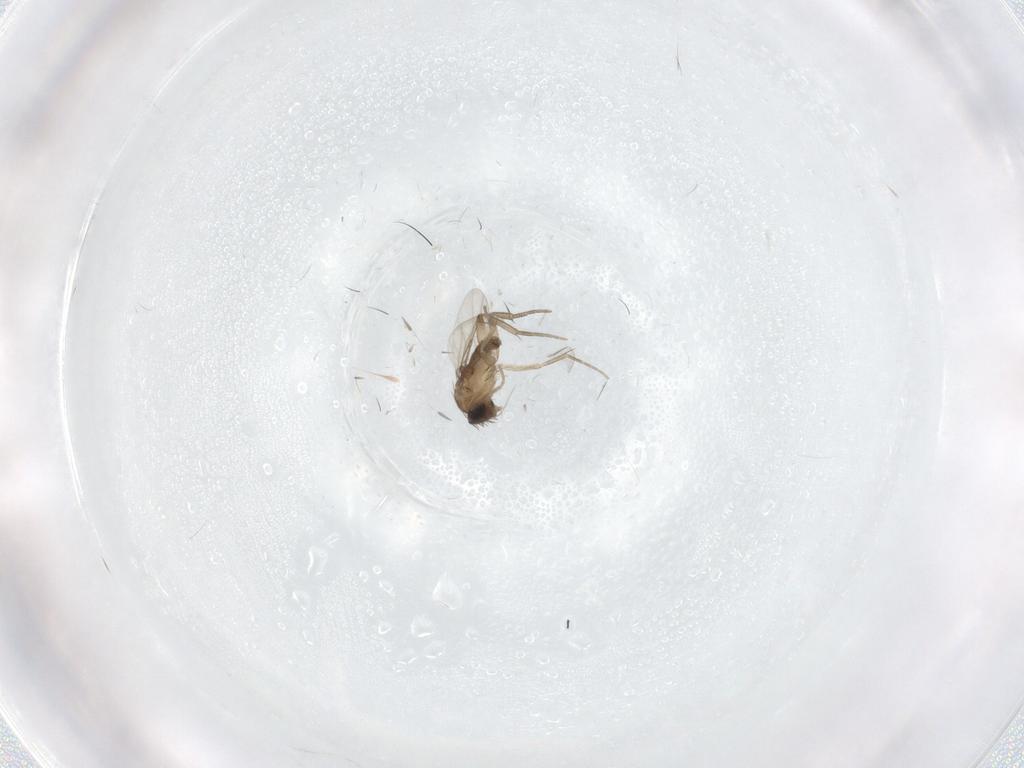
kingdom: Animalia
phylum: Arthropoda
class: Insecta
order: Diptera
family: Phoridae
